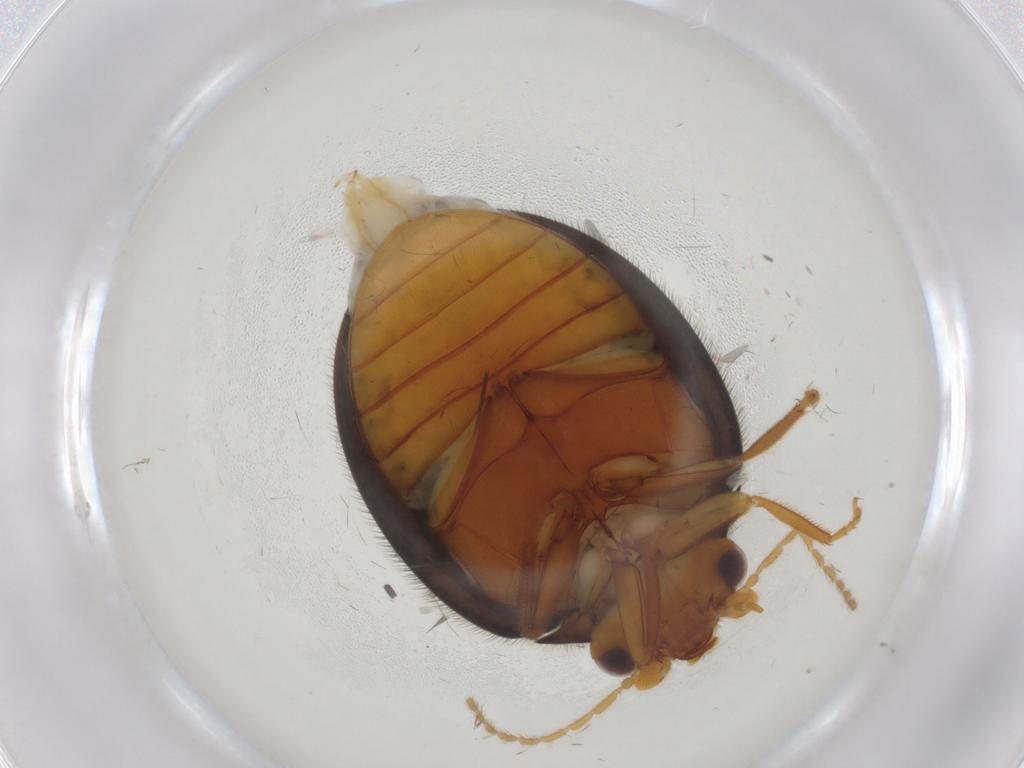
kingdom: Animalia
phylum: Arthropoda
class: Insecta
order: Coleoptera
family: Scirtidae
